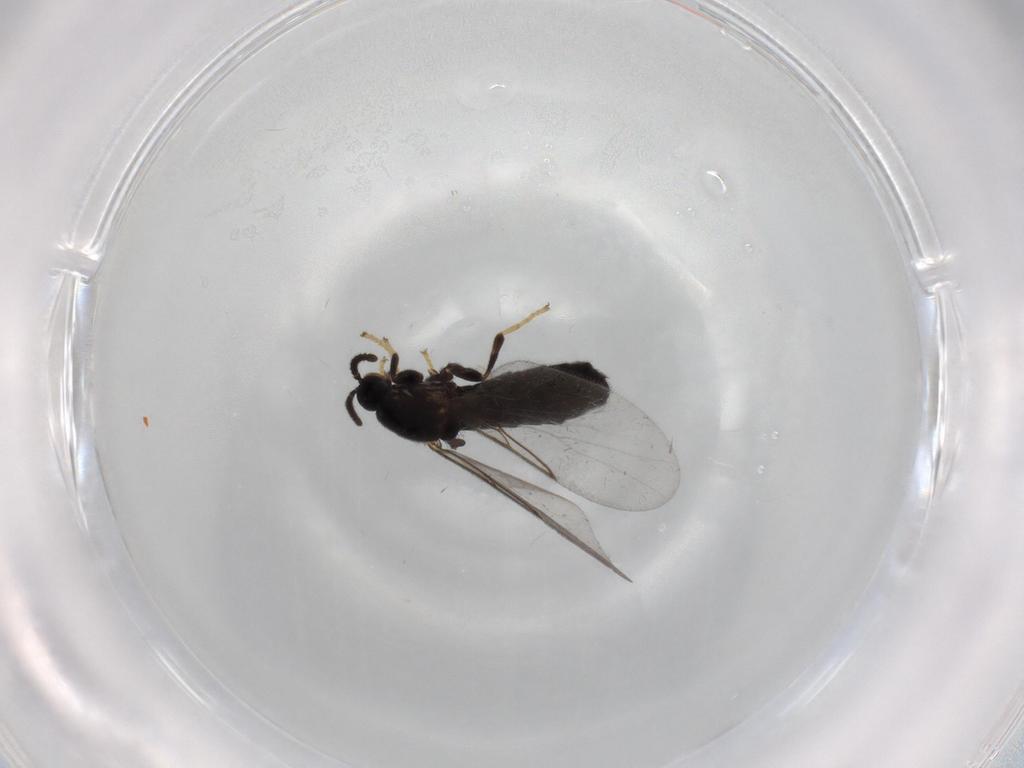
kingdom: Animalia
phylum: Arthropoda
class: Insecta
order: Diptera
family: Scatopsidae
